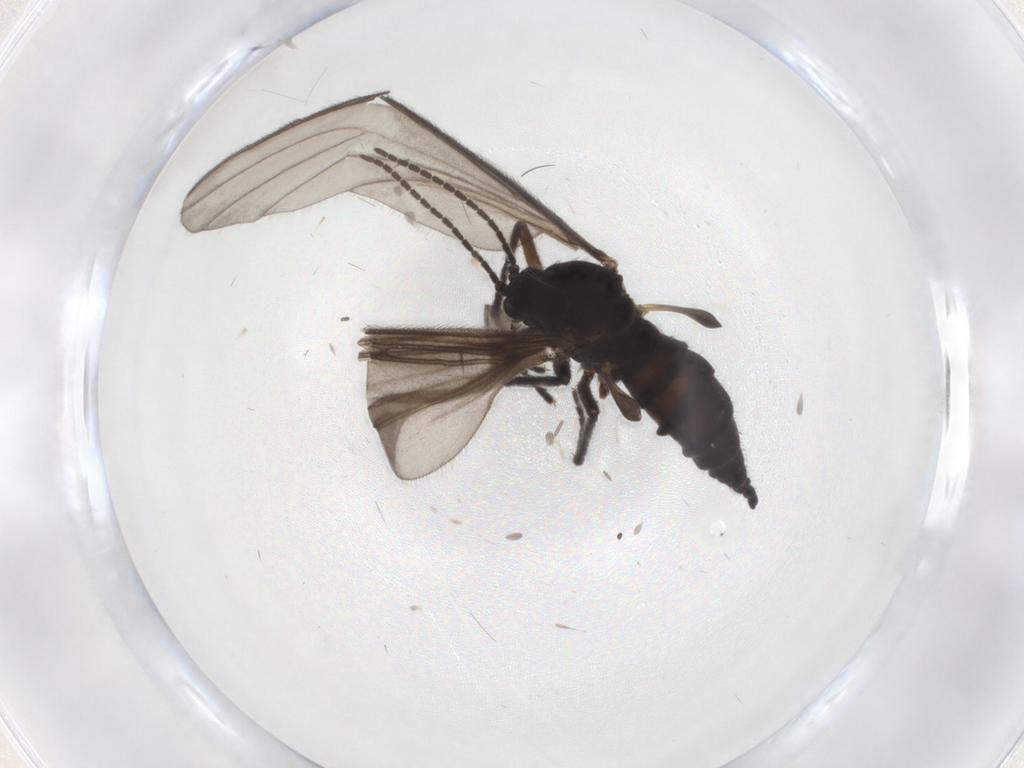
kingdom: Animalia
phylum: Arthropoda
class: Insecta
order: Diptera
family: Sciaridae
